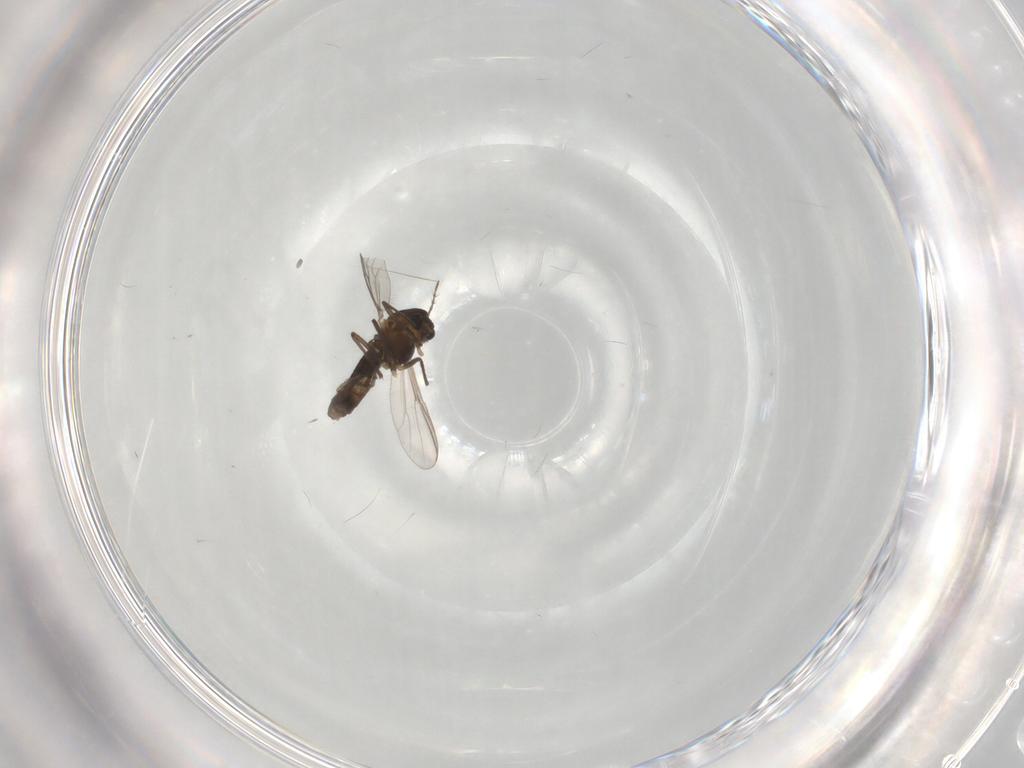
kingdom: Animalia
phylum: Arthropoda
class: Insecta
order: Diptera
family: Chironomidae
